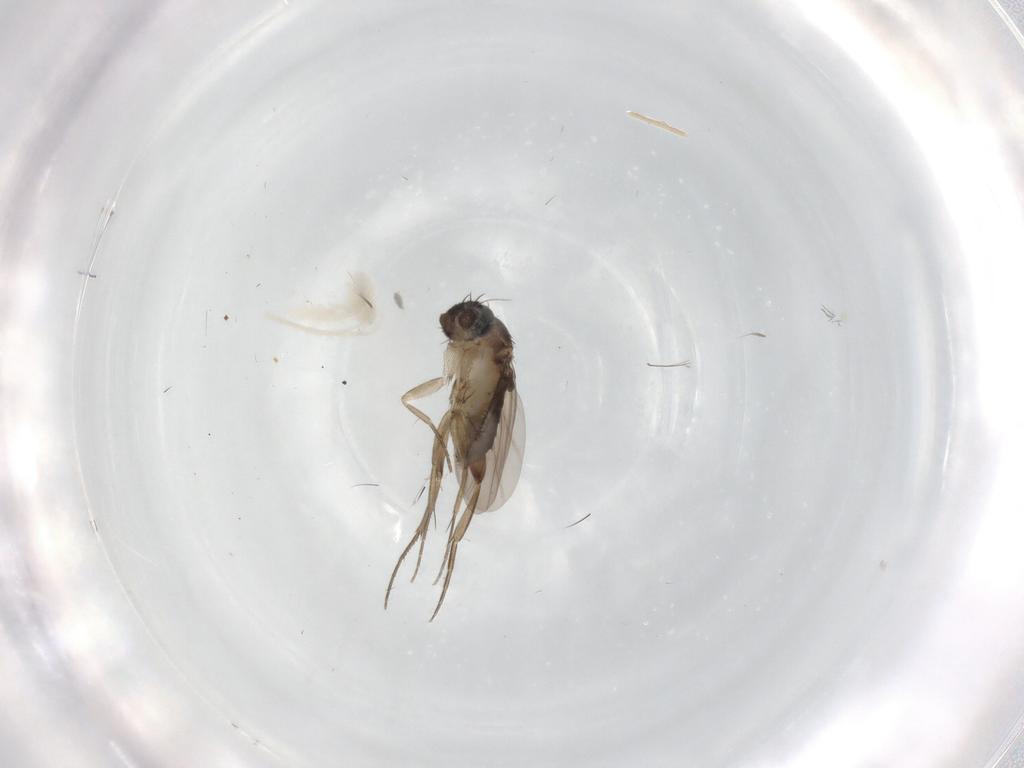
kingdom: Animalia
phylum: Arthropoda
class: Insecta
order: Diptera
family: Phoridae
